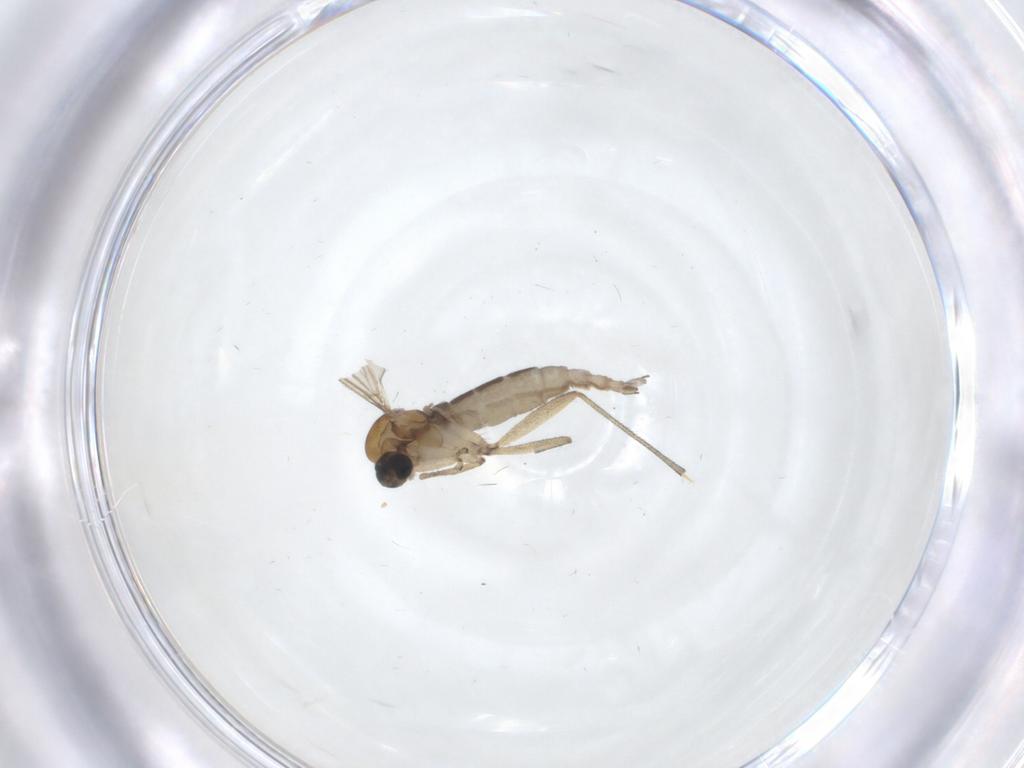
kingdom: Animalia
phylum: Arthropoda
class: Insecta
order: Diptera
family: Sciaridae
